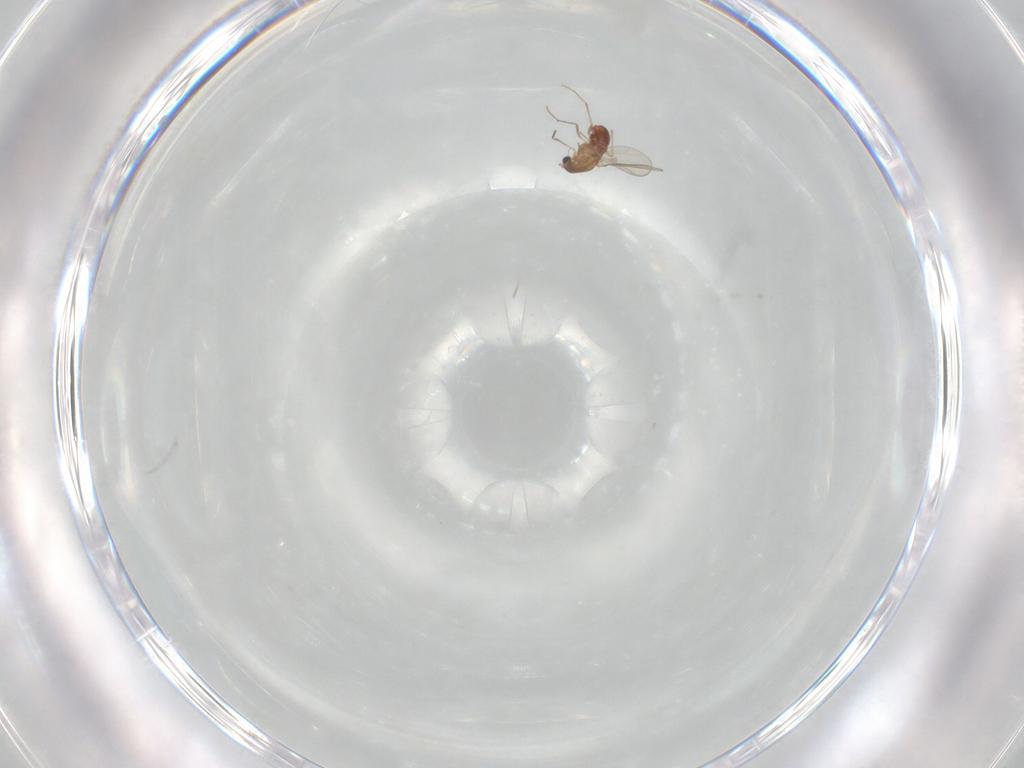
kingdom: Animalia
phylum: Arthropoda
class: Insecta
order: Diptera
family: Chironomidae
